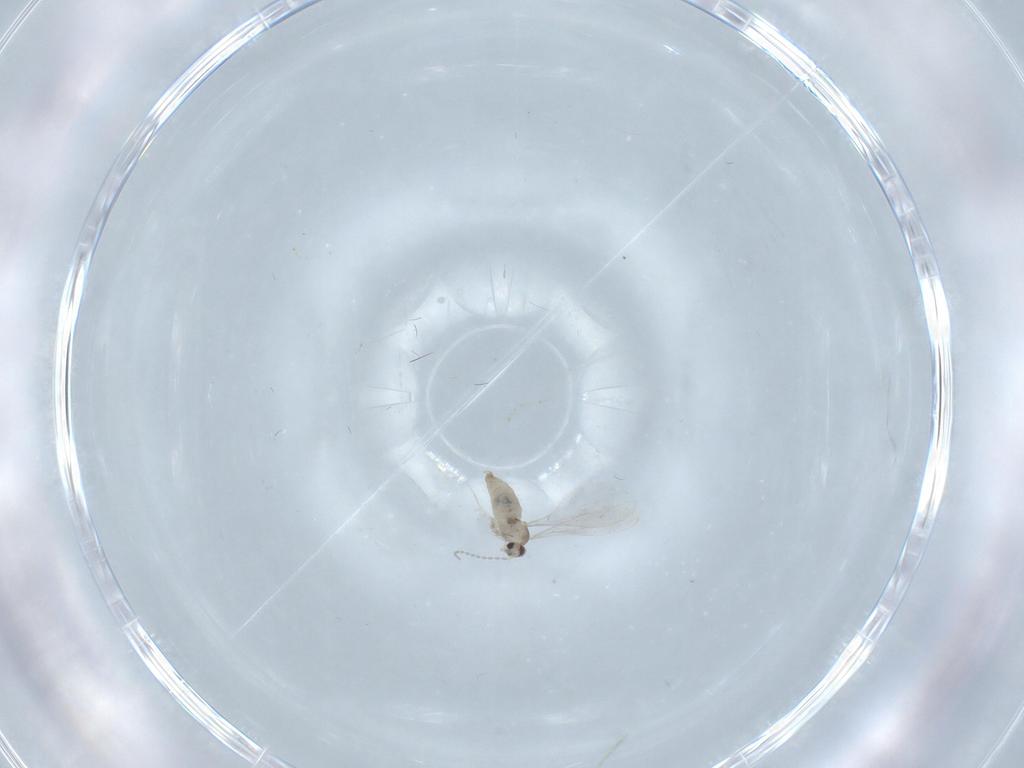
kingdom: Animalia
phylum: Arthropoda
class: Insecta
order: Diptera
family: Cecidomyiidae
